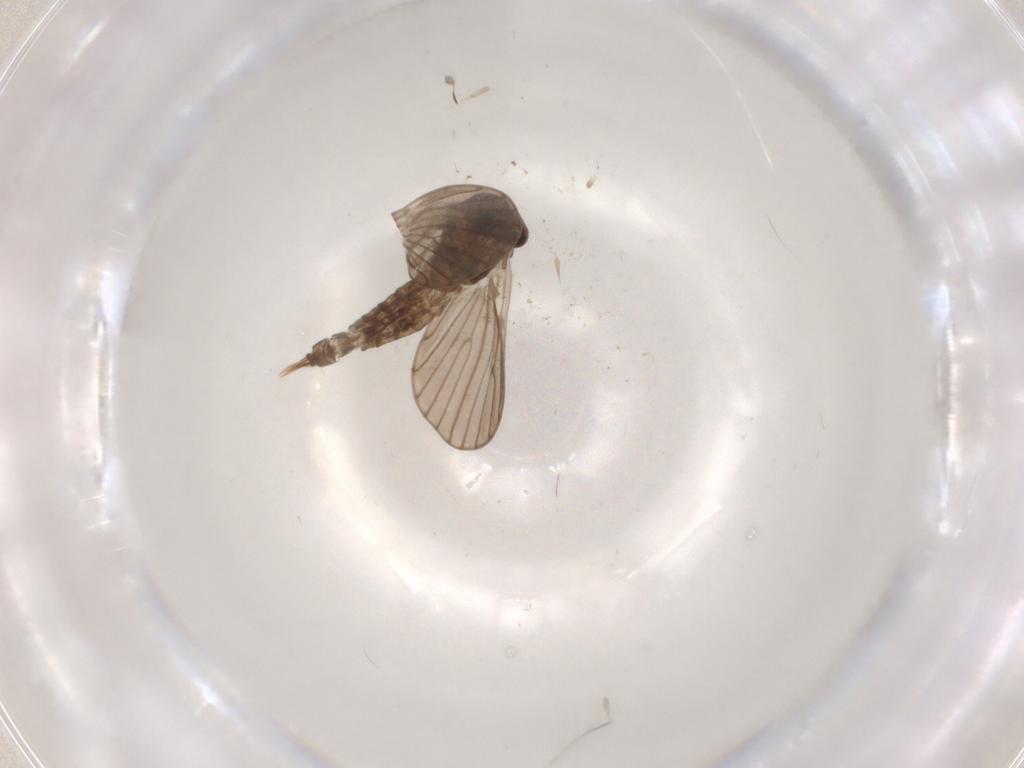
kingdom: Animalia
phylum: Arthropoda
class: Insecta
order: Diptera
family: Cecidomyiidae
